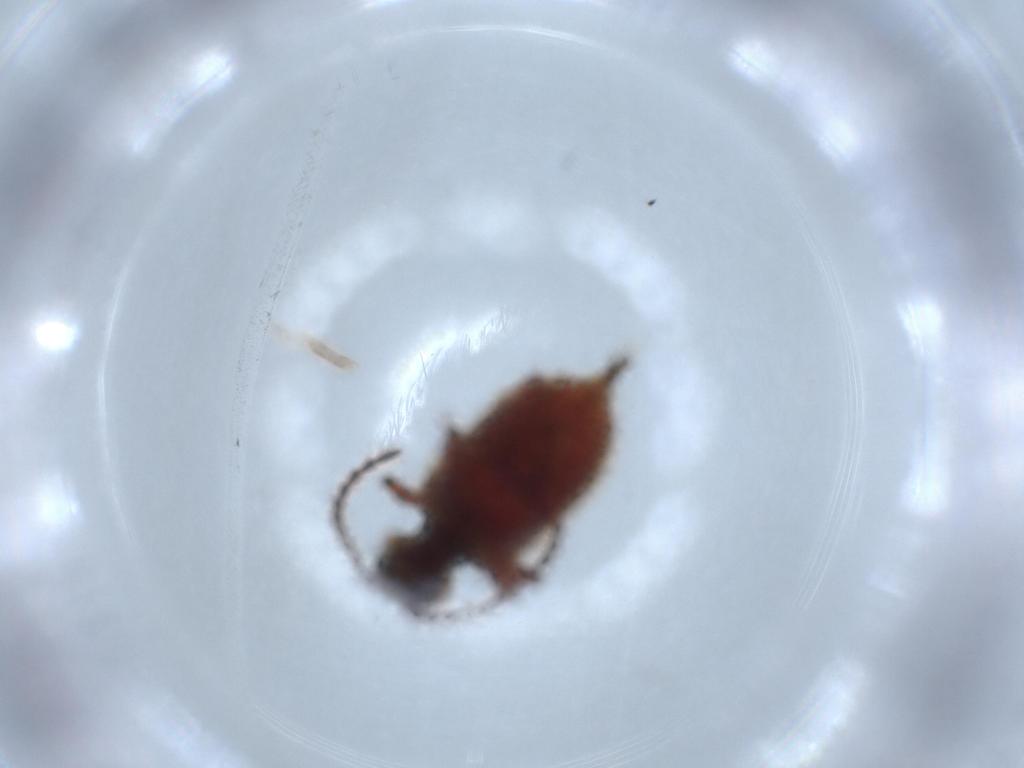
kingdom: Animalia
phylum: Arthropoda
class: Insecta
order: Coleoptera
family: Ptinidae
